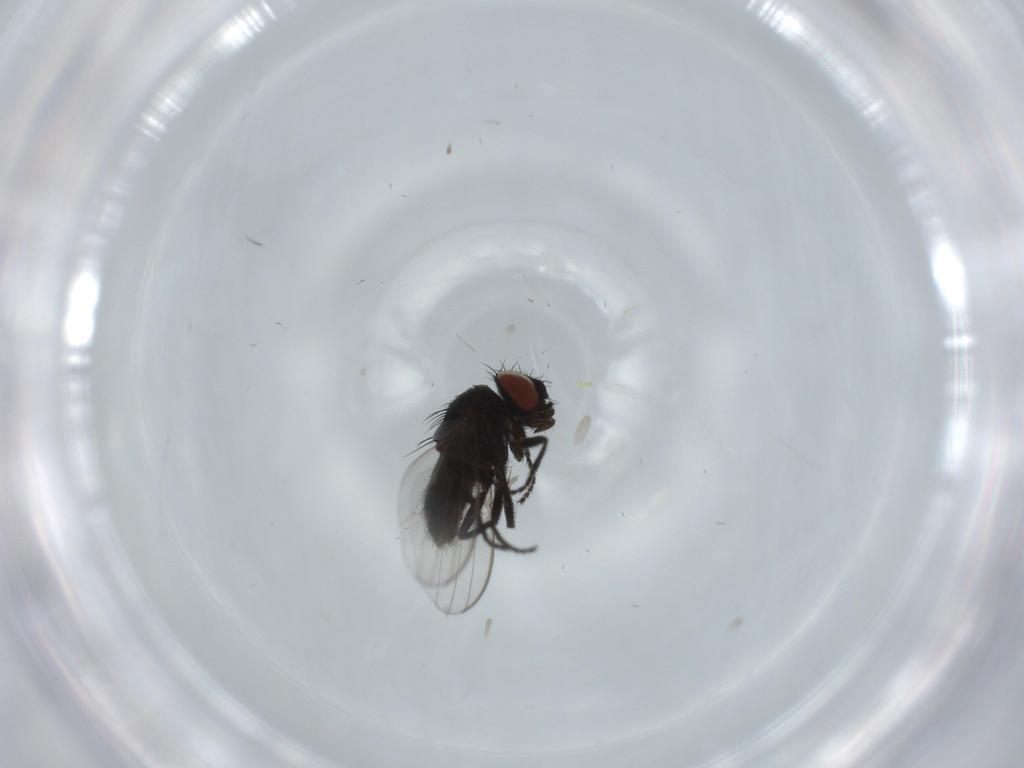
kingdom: Animalia
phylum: Arthropoda
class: Insecta
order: Diptera
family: Milichiidae
